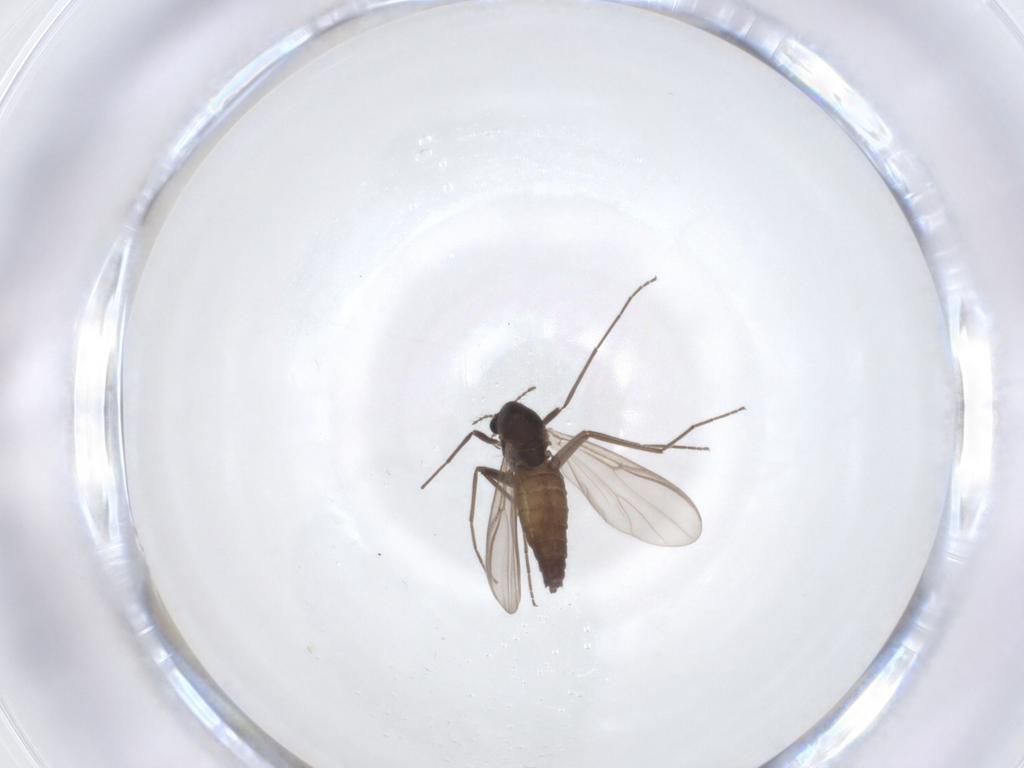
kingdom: Animalia
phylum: Arthropoda
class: Insecta
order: Diptera
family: Chironomidae
